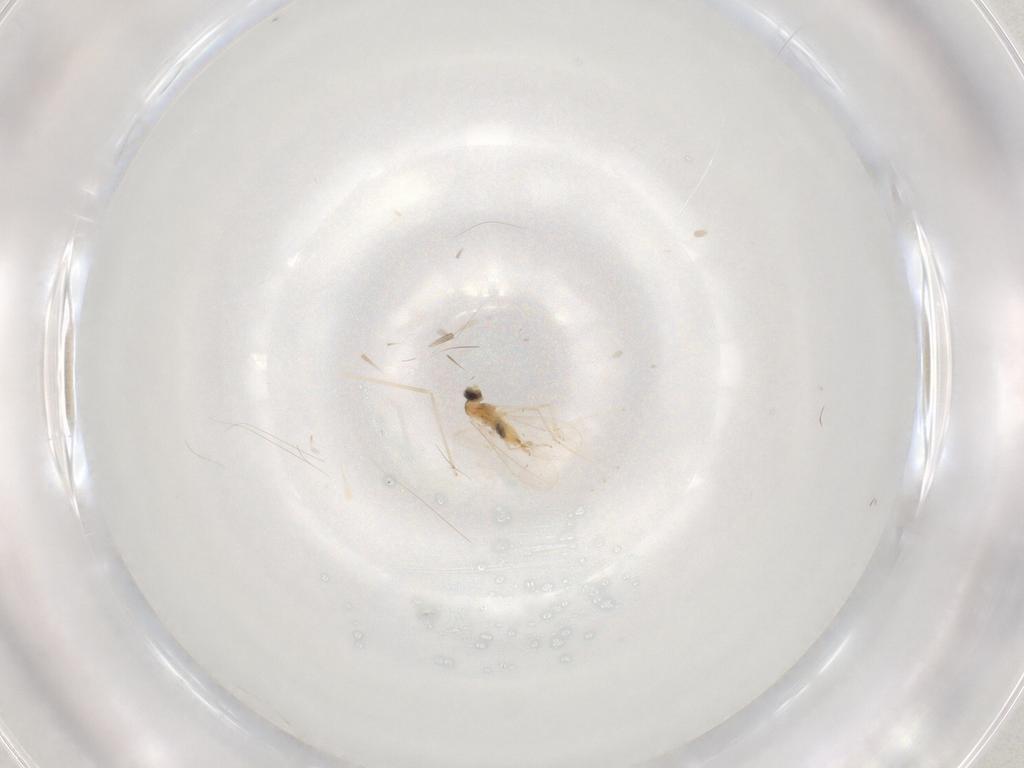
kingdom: Animalia
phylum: Arthropoda
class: Insecta
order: Diptera
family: Cecidomyiidae
